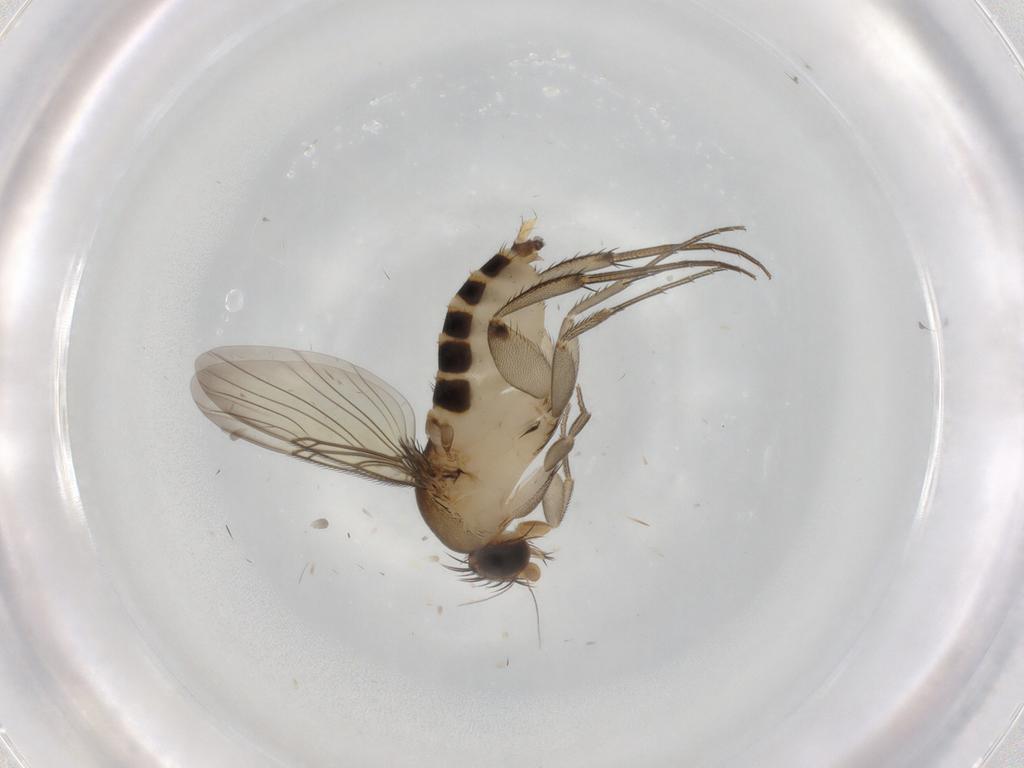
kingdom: Animalia
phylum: Arthropoda
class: Insecta
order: Diptera
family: Phoridae
